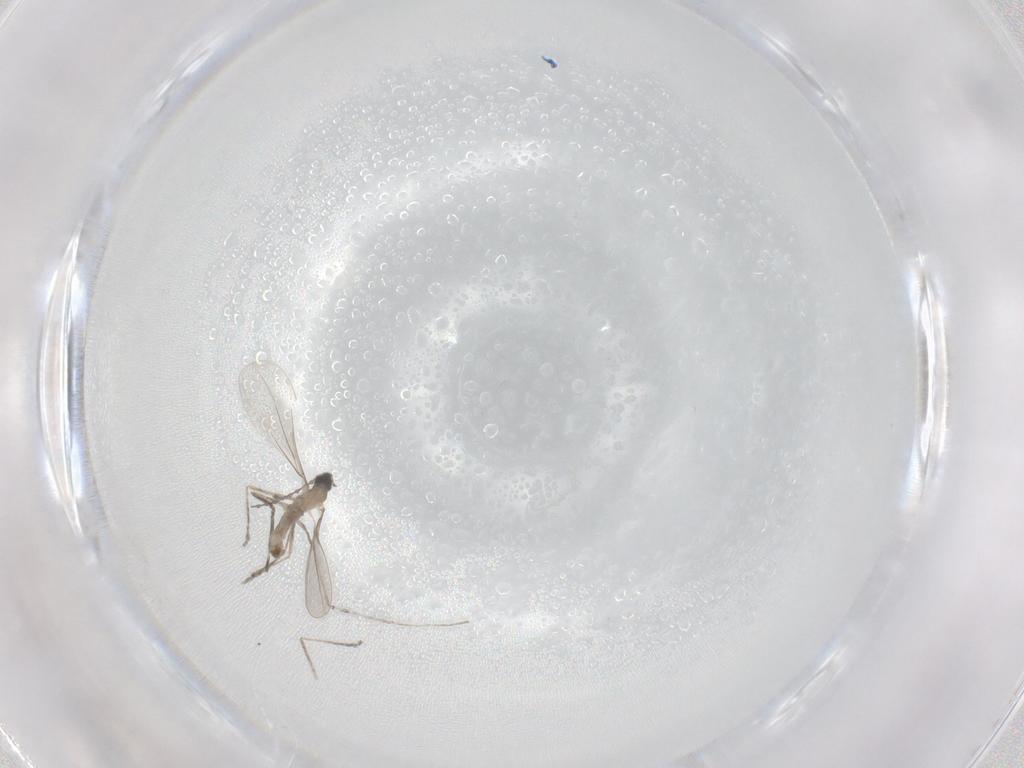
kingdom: Animalia
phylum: Arthropoda
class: Insecta
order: Diptera
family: Cecidomyiidae
